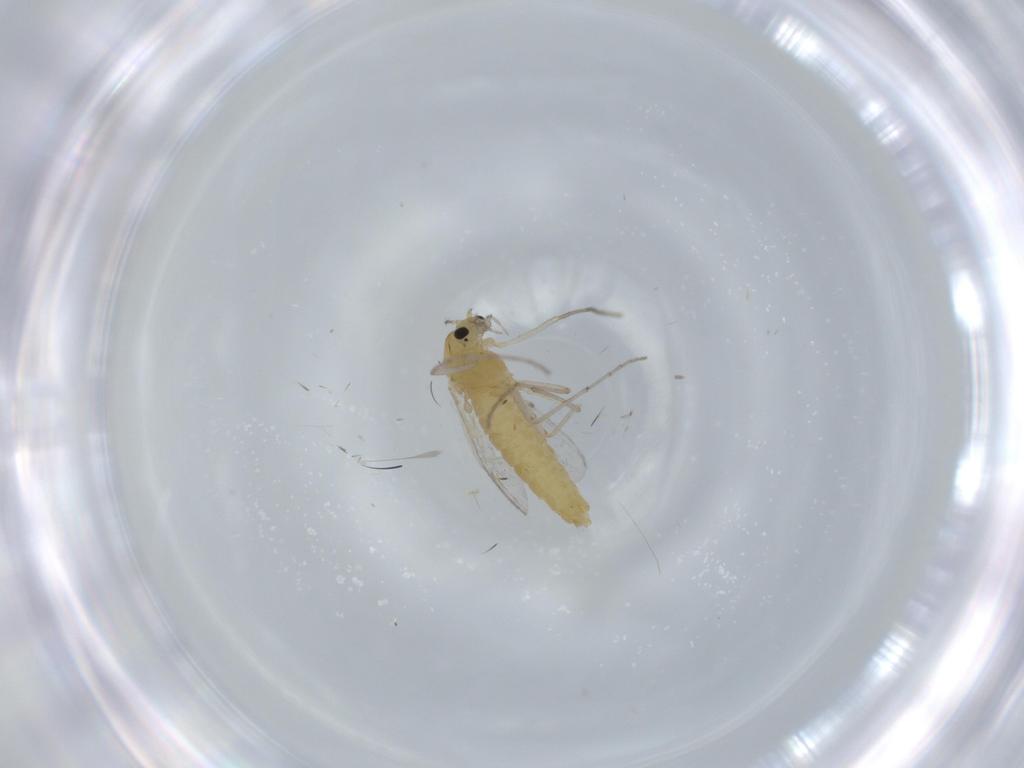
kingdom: Animalia
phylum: Arthropoda
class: Insecta
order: Diptera
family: Chironomidae
